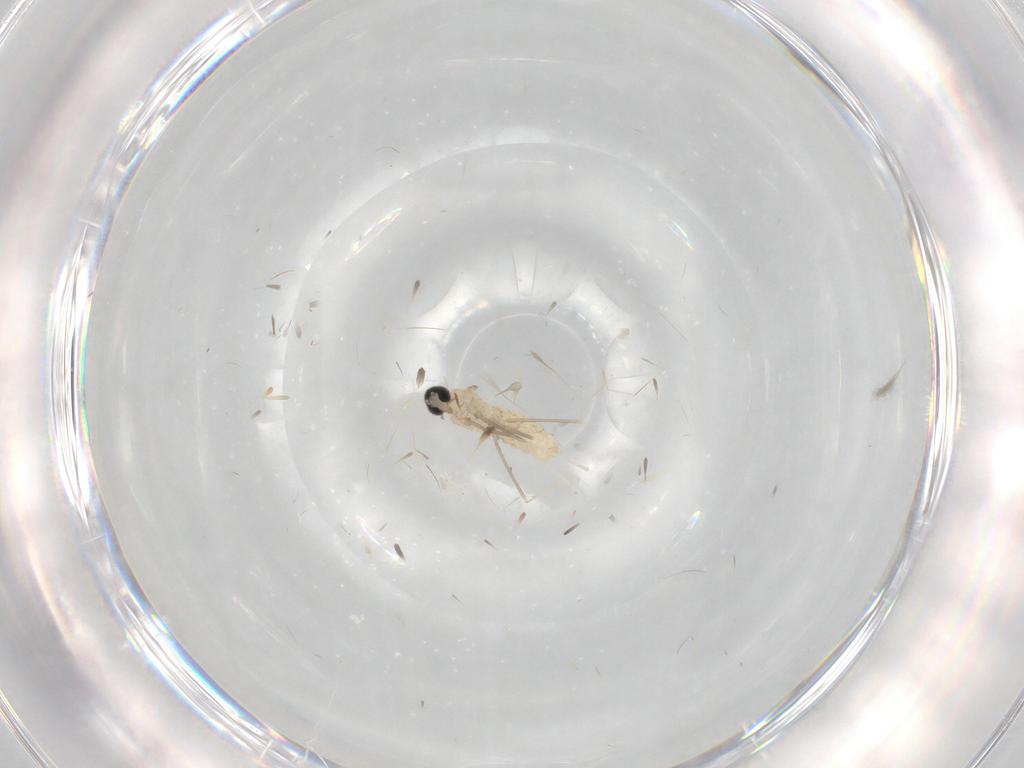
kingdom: Animalia
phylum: Arthropoda
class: Insecta
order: Diptera
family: Cecidomyiidae
